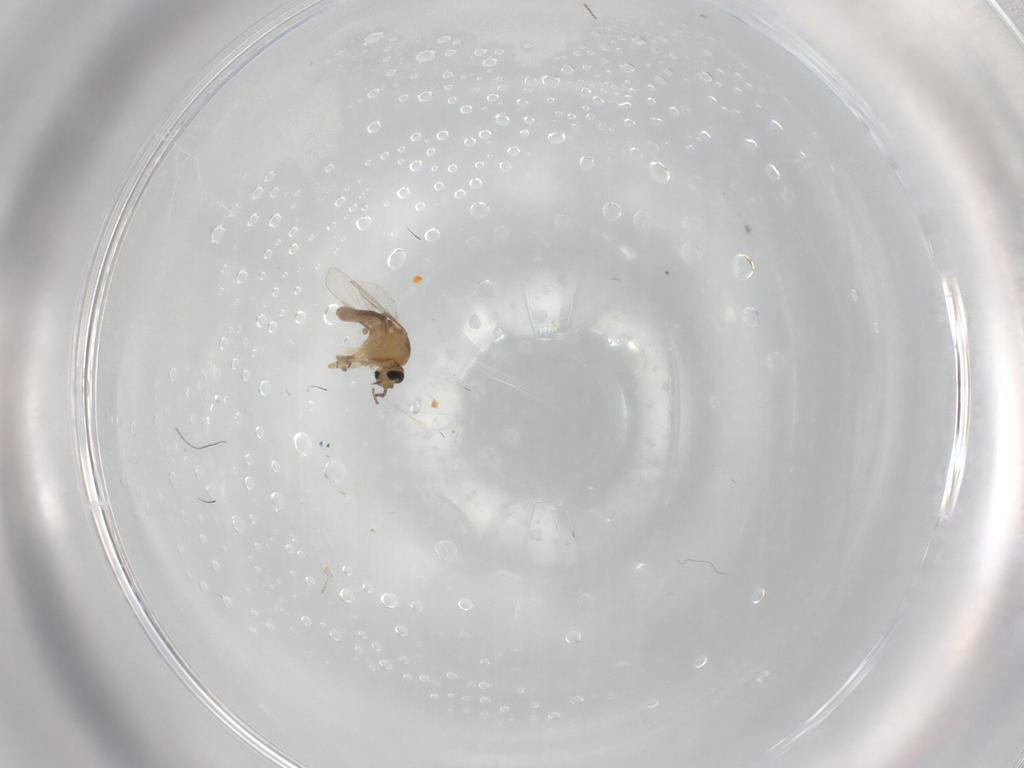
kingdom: Animalia
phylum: Arthropoda
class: Insecta
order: Diptera
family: Ceratopogonidae
